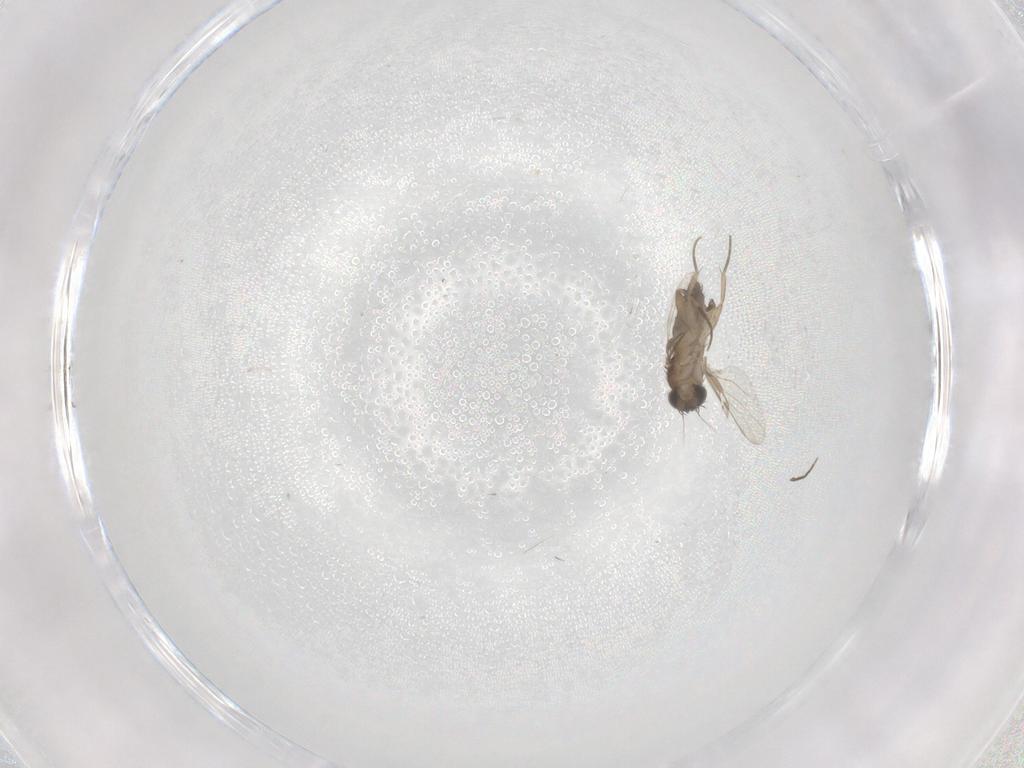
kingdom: Animalia
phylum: Arthropoda
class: Insecta
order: Diptera
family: Phoridae
